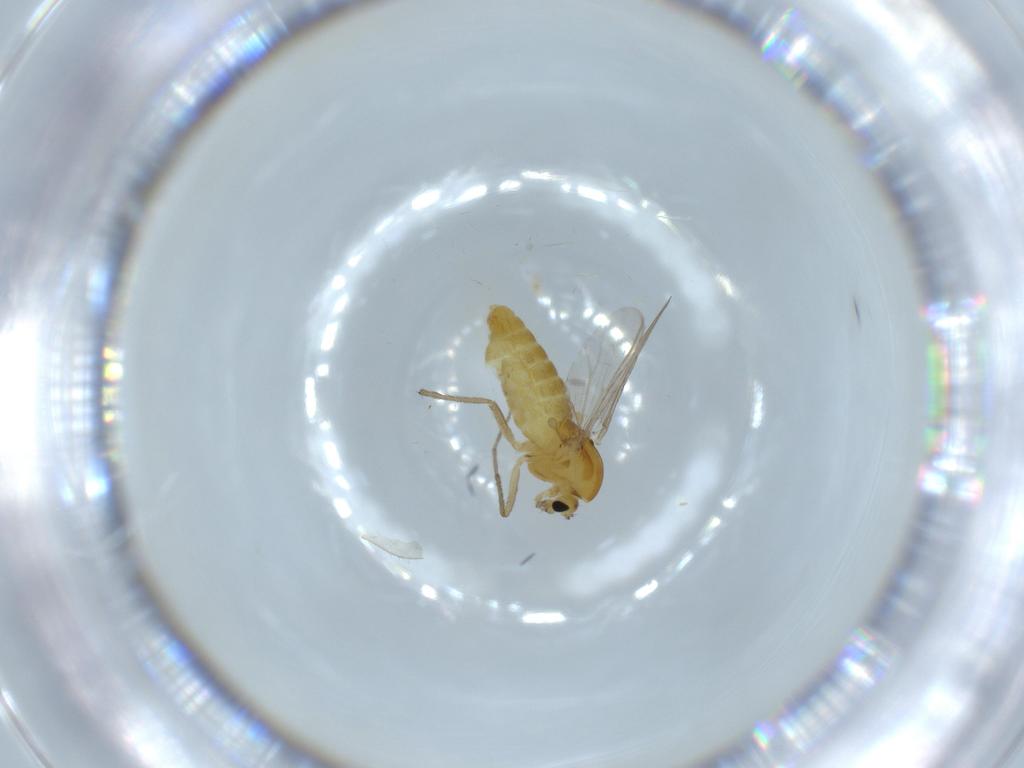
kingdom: Animalia
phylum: Arthropoda
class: Insecta
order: Diptera
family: Chironomidae
